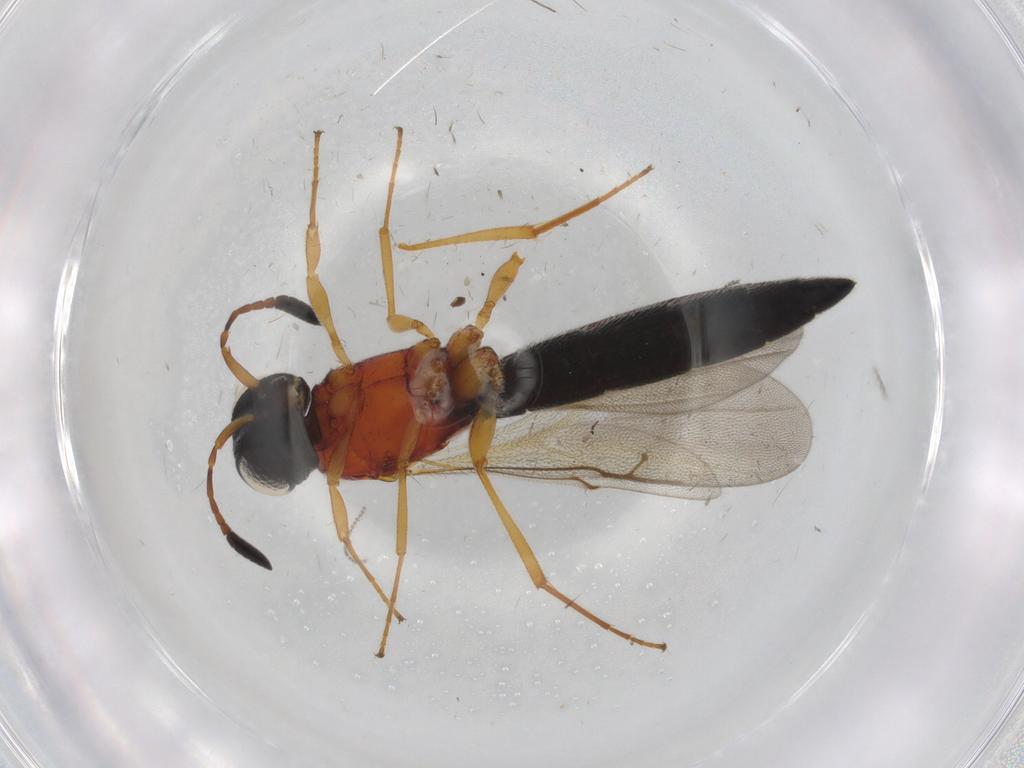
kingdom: Animalia
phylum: Arthropoda
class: Insecta
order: Hymenoptera
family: Scelionidae
